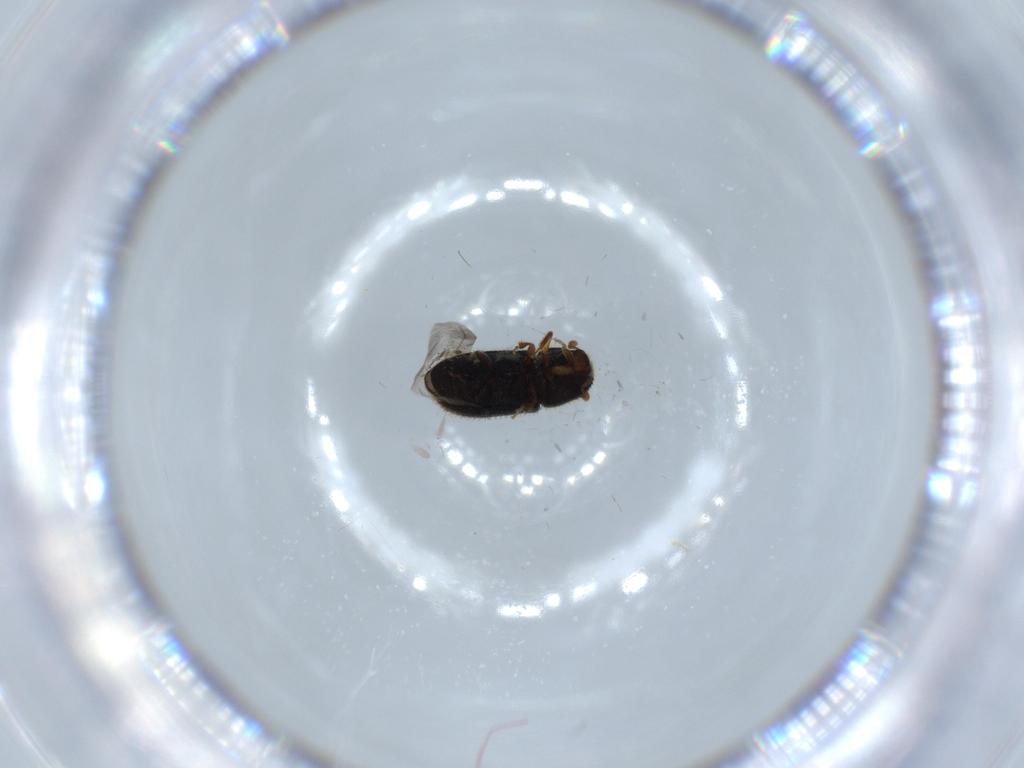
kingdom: Animalia
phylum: Arthropoda
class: Insecta
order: Coleoptera
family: Curculionidae
